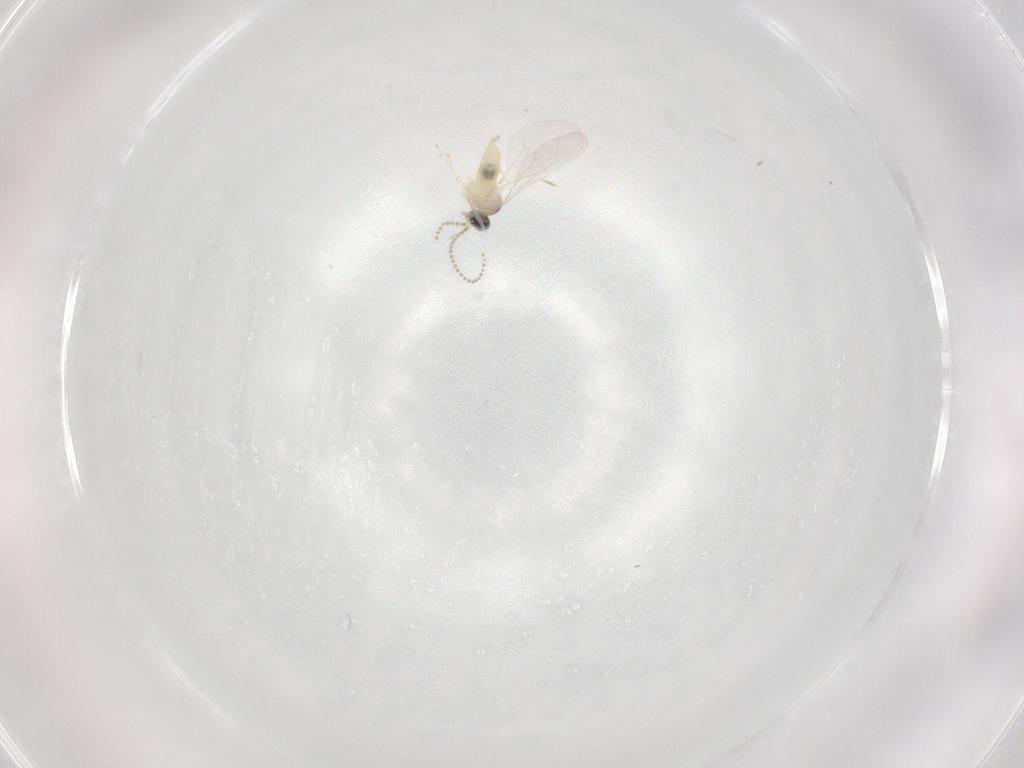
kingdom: Animalia
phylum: Arthropoda
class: Insecta
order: Diptera
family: Cecidomyiidae
